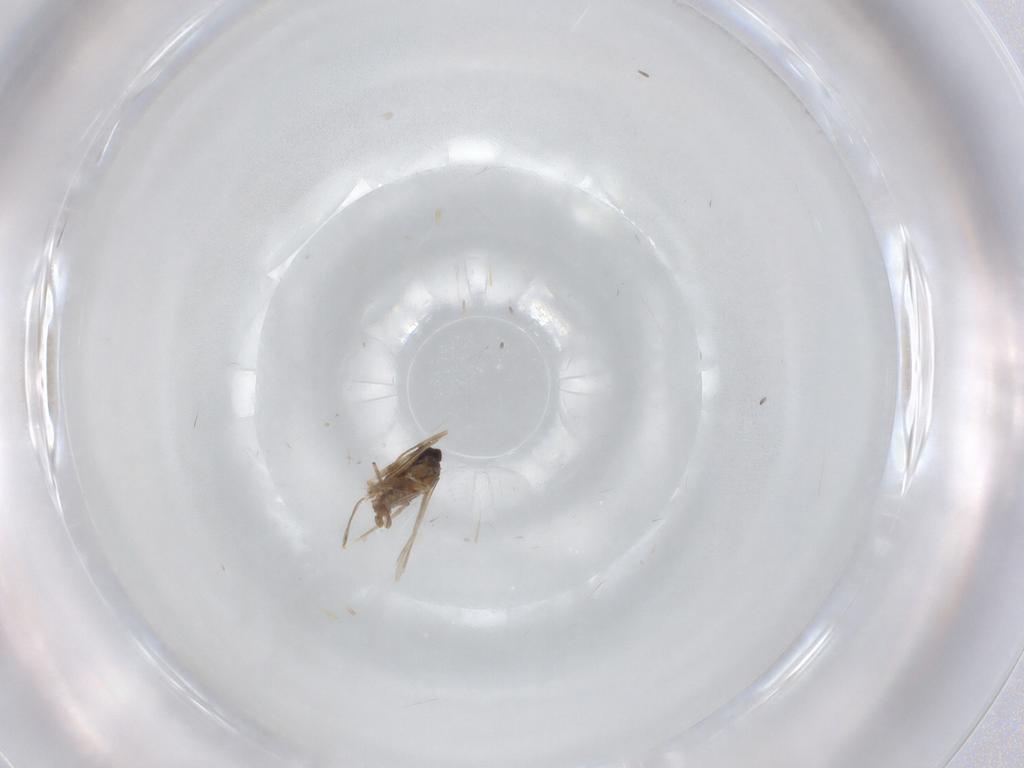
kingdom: Animalia
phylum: Arthropoda
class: Insecta
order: Diptera
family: Cecidomyiidae
